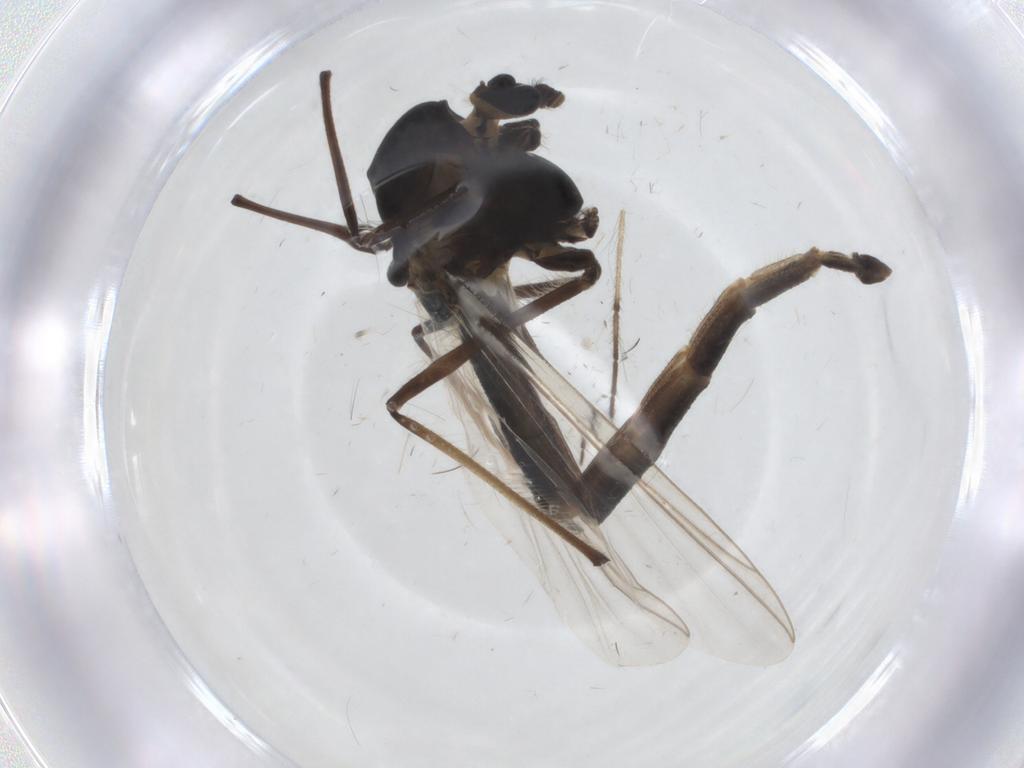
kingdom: Animalia
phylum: Arthropoda
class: Insecta
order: Diptera
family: Chironomidae
